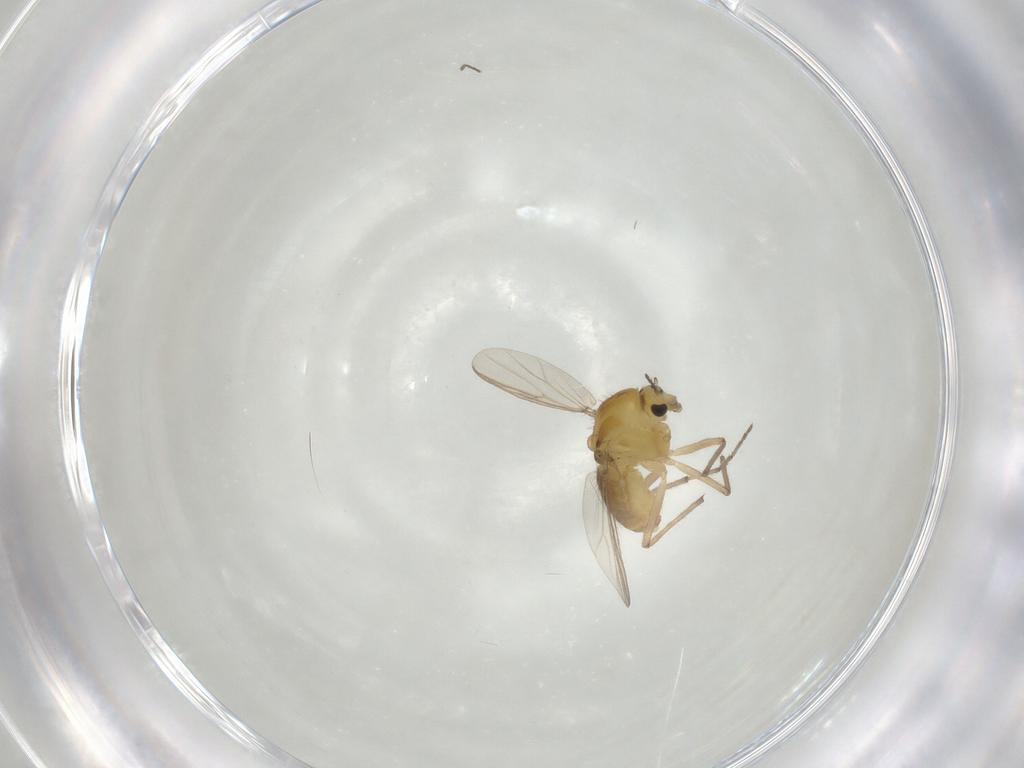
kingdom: Animalia
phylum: Arthropoda
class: Insecta
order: Diptera
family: Chironomidae
